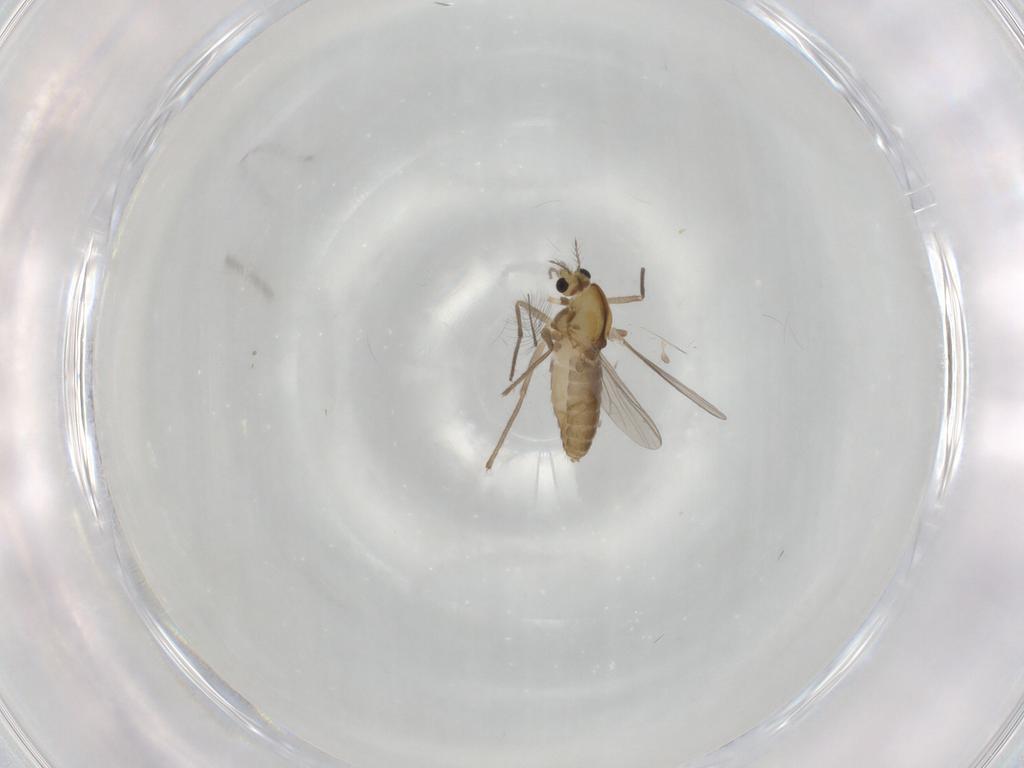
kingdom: Animalia
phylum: Arthropoda
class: Insecta
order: Diptera
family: Chironomidae
